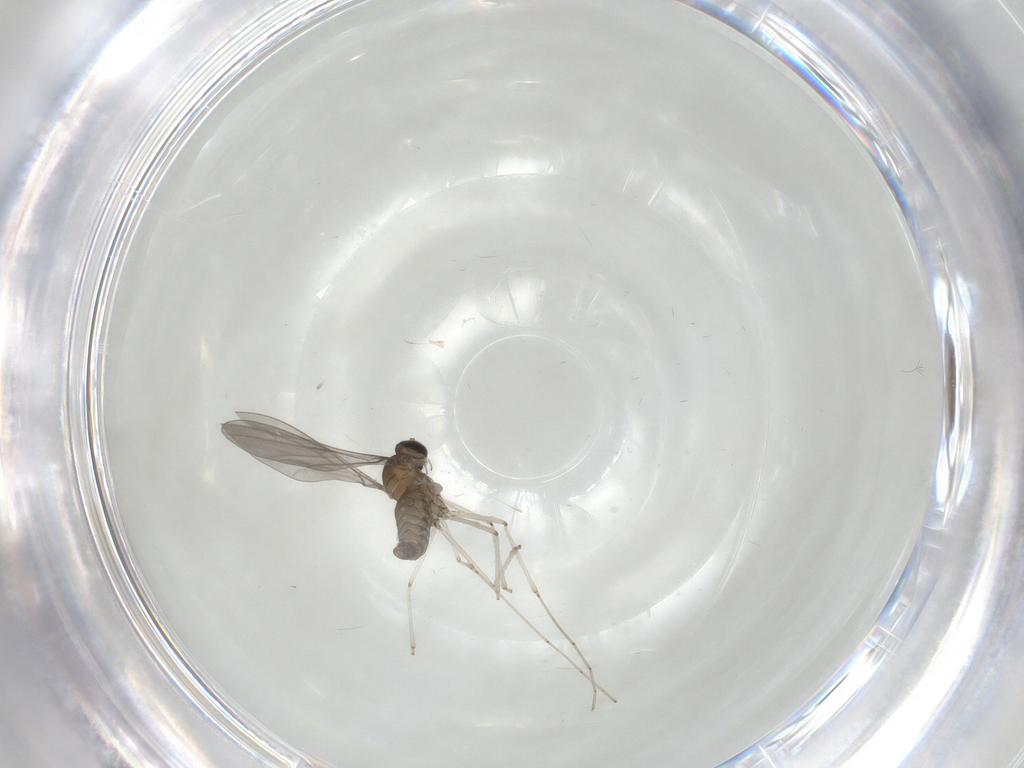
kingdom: Animalia
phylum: Arthropoda
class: Insecta
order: Diptera
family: Cecidomyiidae
